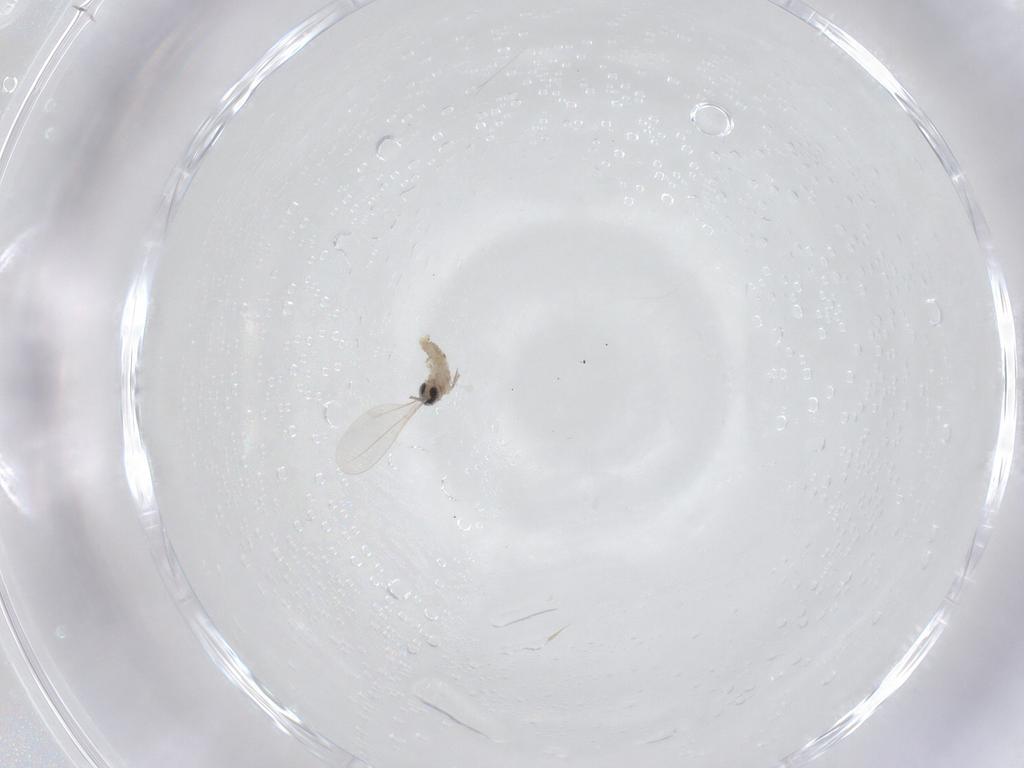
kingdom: Animalia
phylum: Arthropoda
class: Insecta
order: Diptera
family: Cecidomyiidae
